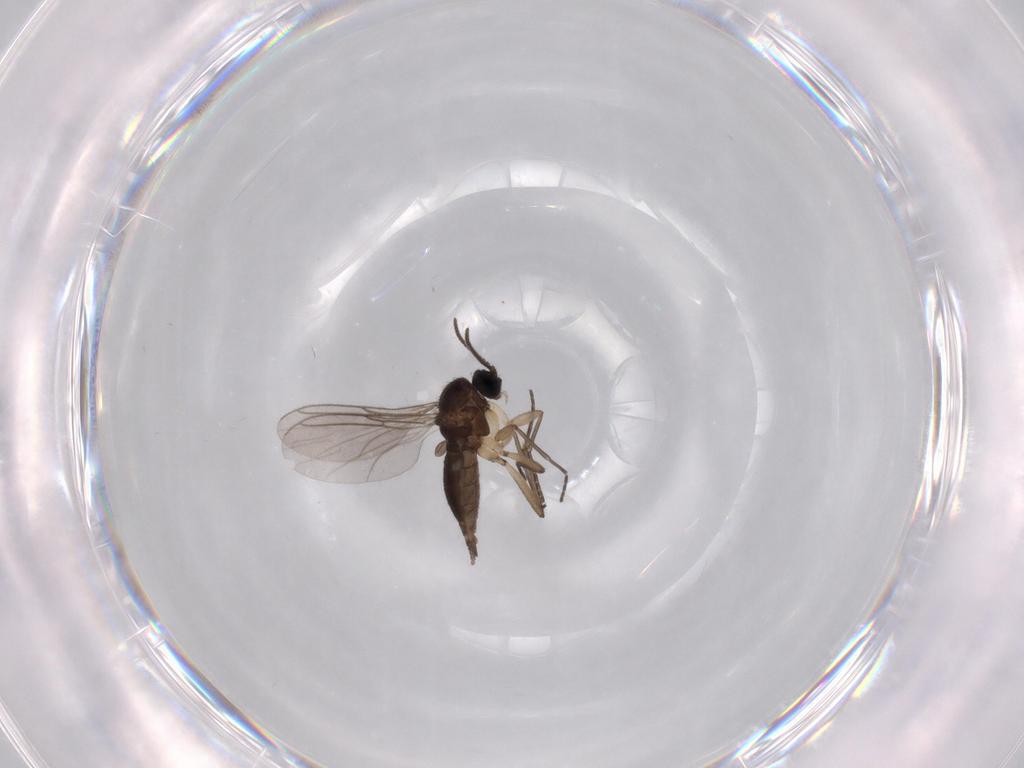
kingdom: Animalia
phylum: Arthropoda
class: Insecta
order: Diptera
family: Sciaridae
